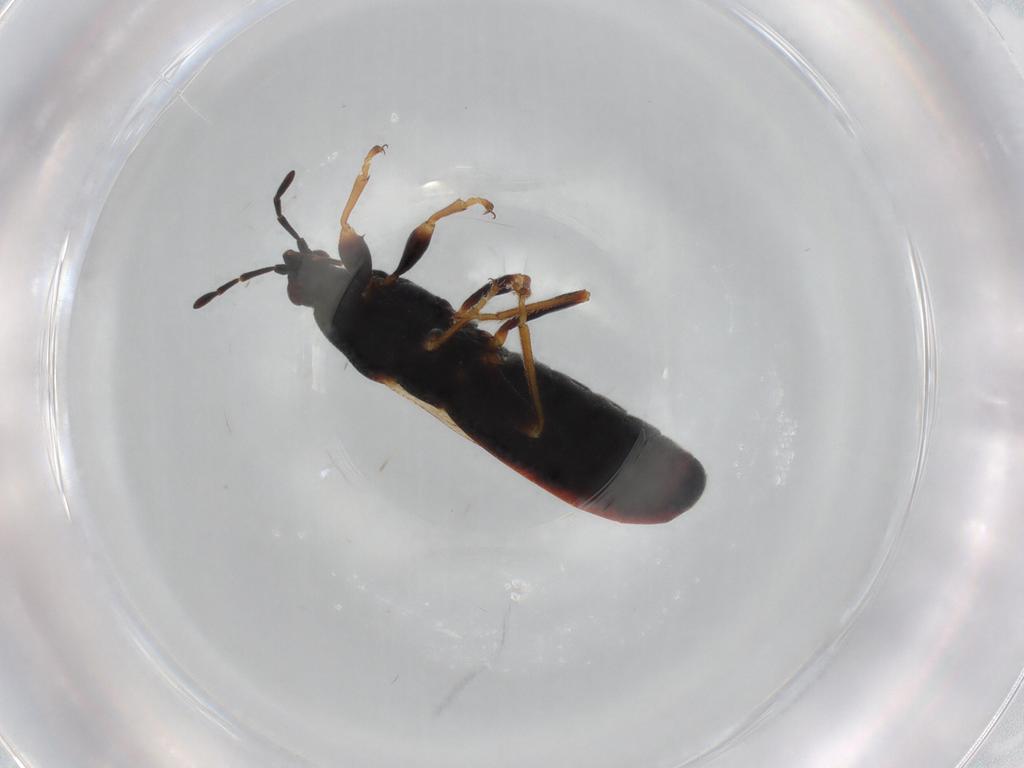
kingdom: Animalia
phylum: Arthropoda
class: Insecta
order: Hemiptera
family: Blissidae
